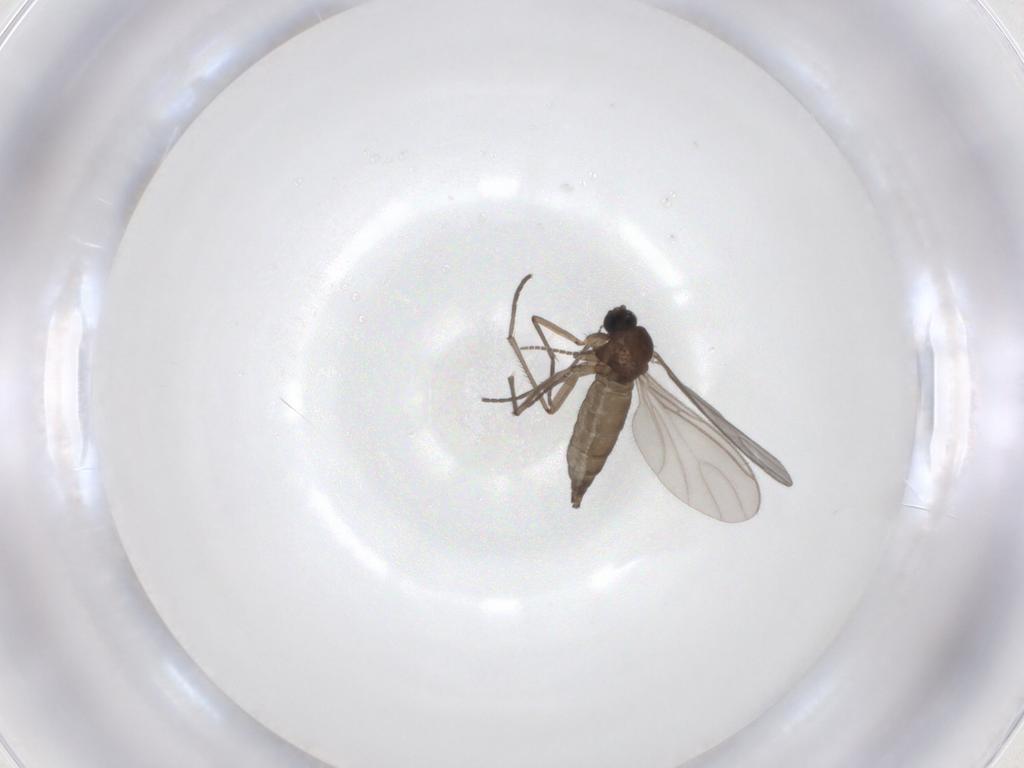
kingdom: Animalia
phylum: Arthropoda
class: Insecta
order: Diptera
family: Sciaridae
